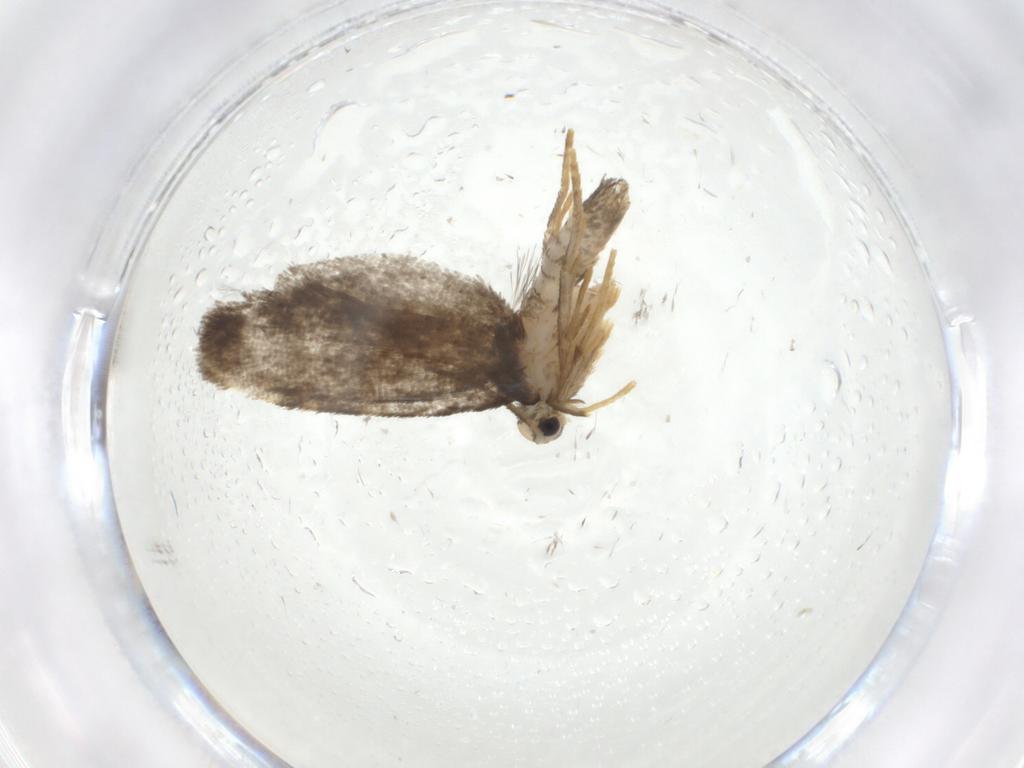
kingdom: Animalia
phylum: Arthropoda
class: Insecta
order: Lepidoptera
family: Psychidae
